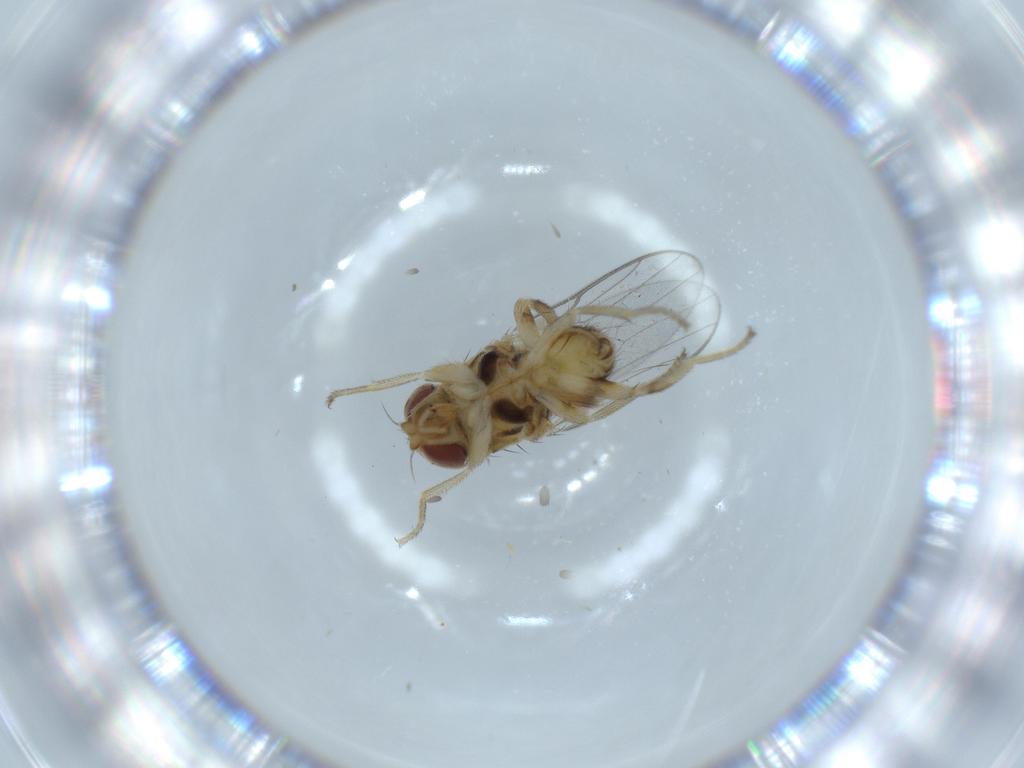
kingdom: Animalia
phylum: Arthropoda
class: Insecta
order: Diptera
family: Chloropidae
